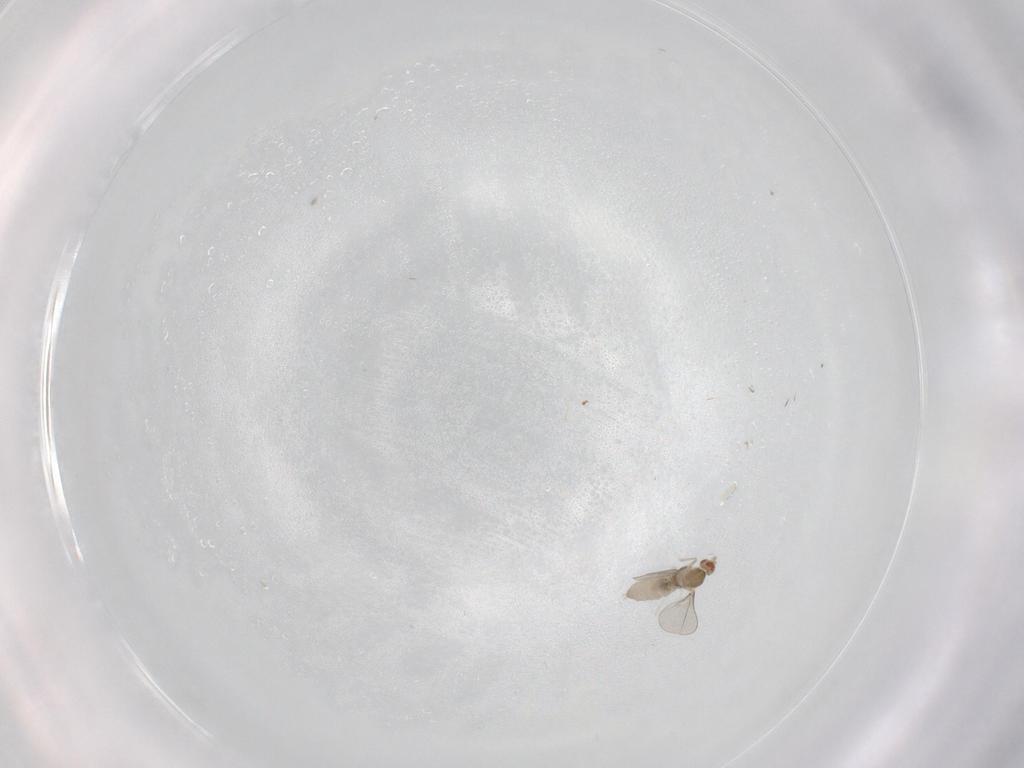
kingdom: Animalia
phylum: Arthropoda
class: Insecta
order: Diptera
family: Cecidomyiidae
